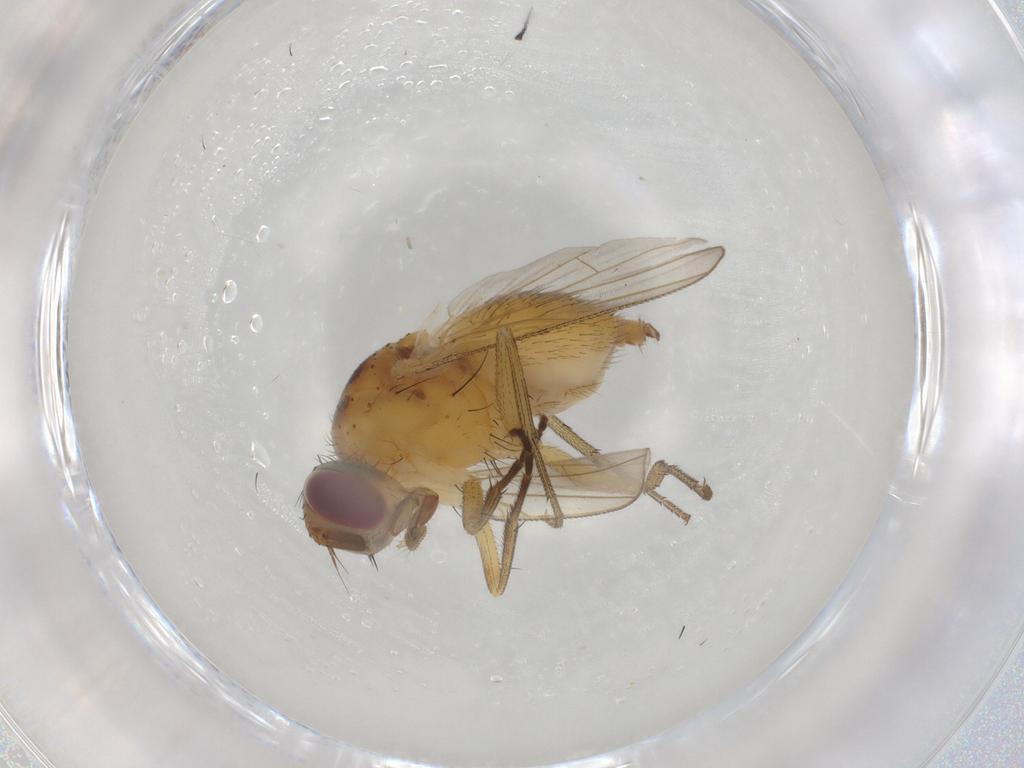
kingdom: Animalia
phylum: Arthropoda
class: Insecta
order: Diptera
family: Muscidae
